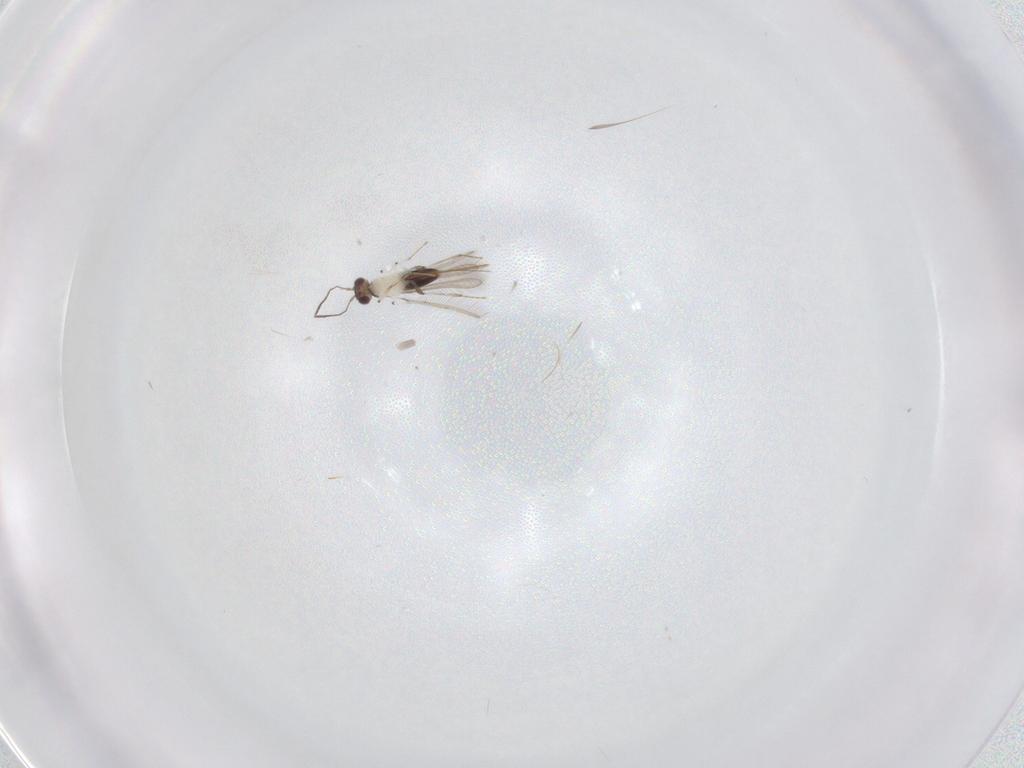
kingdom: Animalia
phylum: Arthropoda
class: Insecta
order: Hymenoptera
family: Mymaridae
